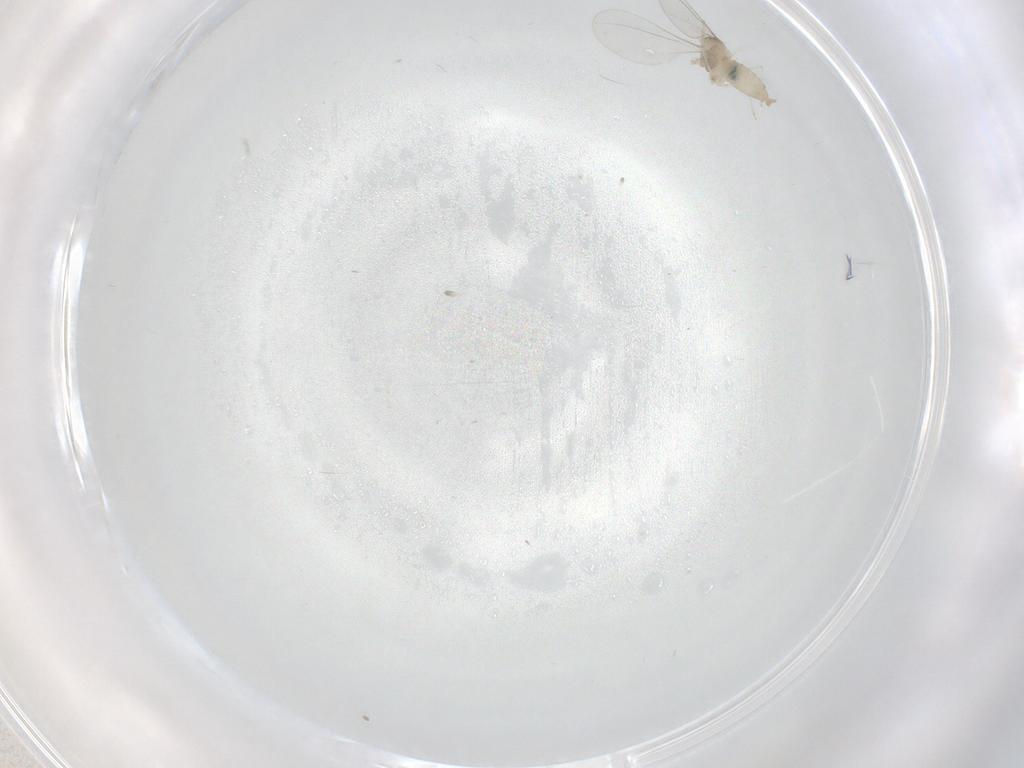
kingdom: Animalia
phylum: Arthropoda
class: Insecta
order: Diptera
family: Cecidomyiidae
